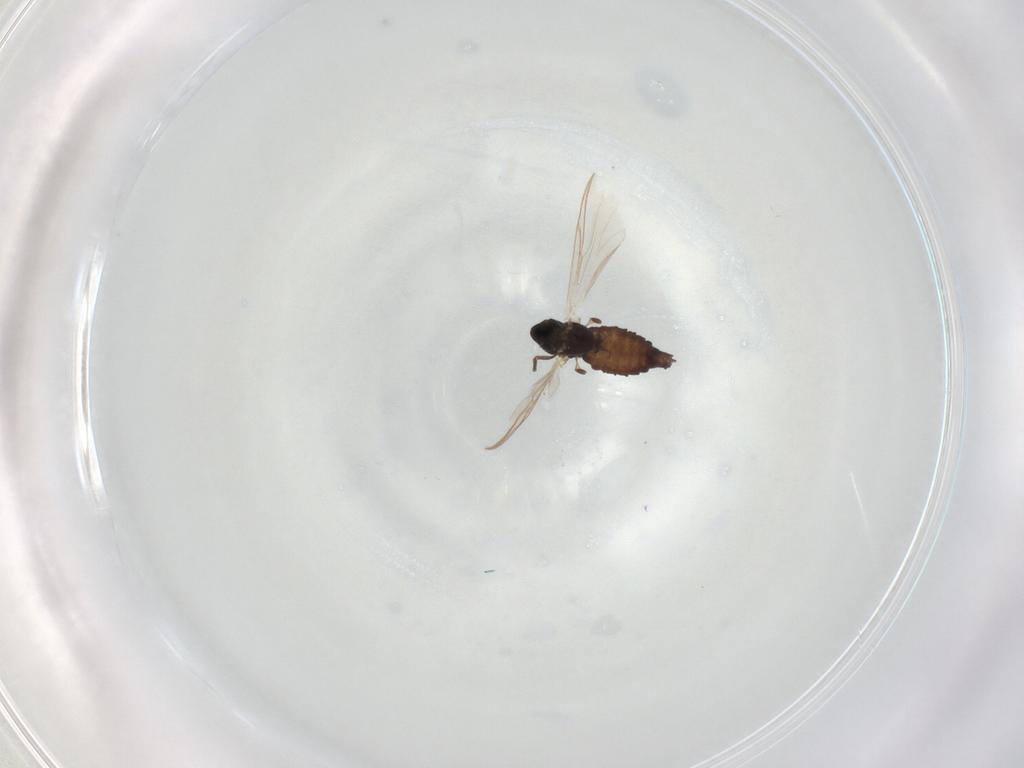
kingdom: Animalia
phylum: Arthropoda
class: Insecta
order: Diptera
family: Chironomidae
